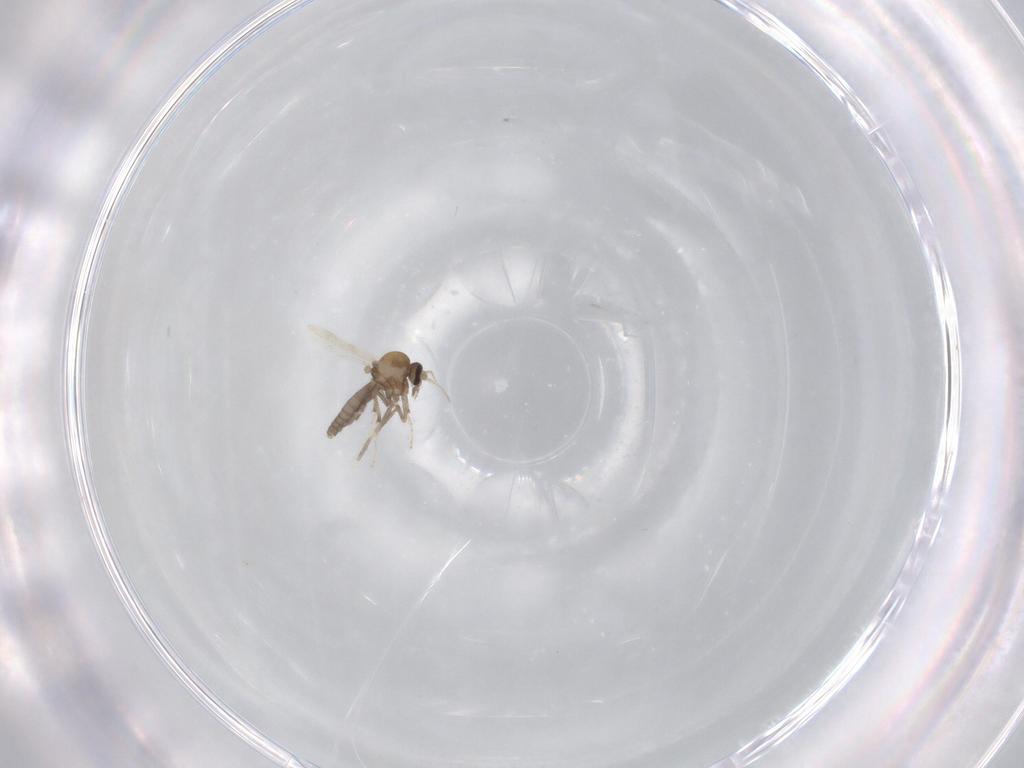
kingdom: Animalia
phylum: Arthropoda
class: Insecta
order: Diptera
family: Ceratopogonidae
